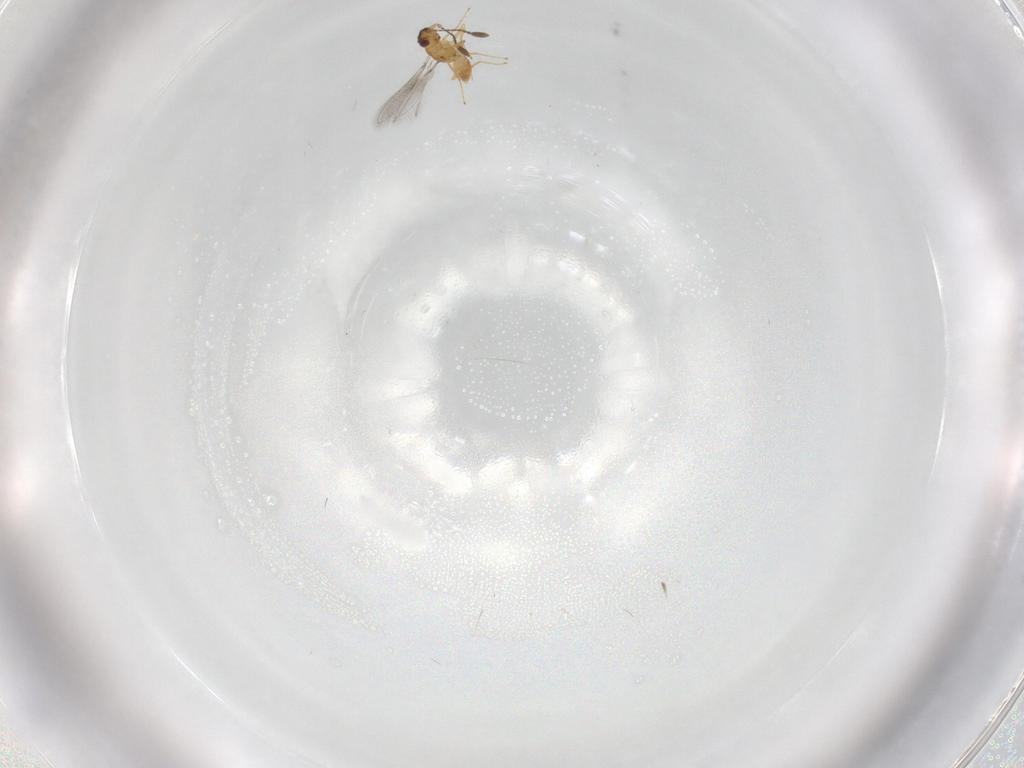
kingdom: Animalia
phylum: Arthropoda
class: Insecta
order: Hymenoptera
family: Mymaridae
